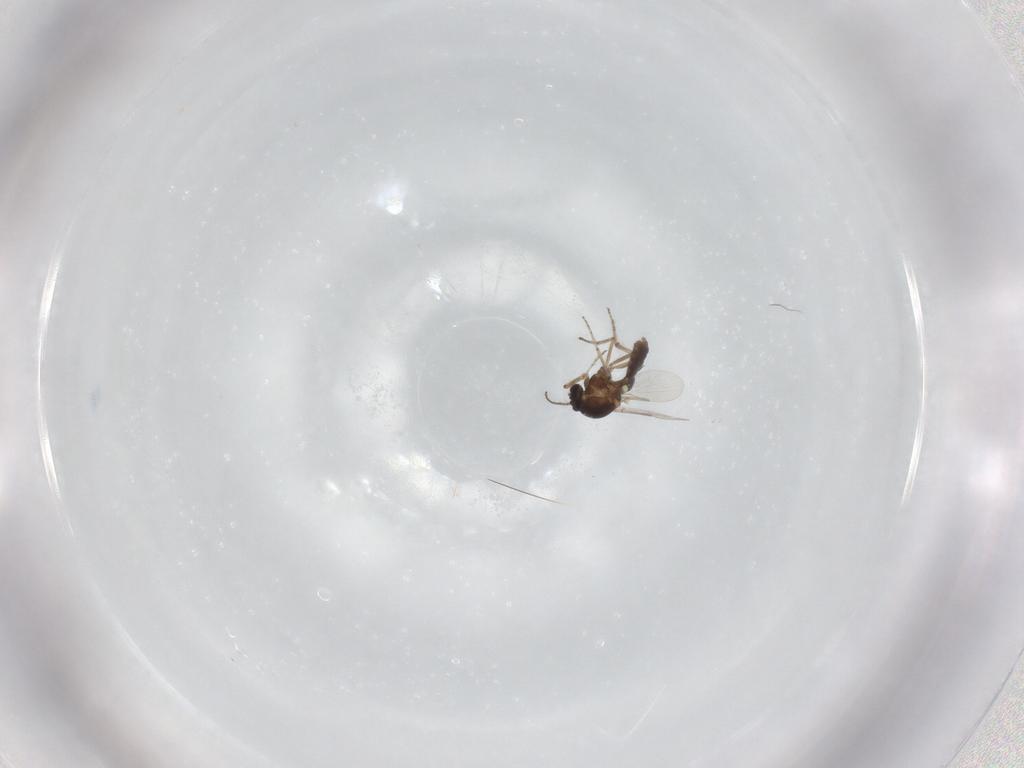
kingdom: Animalia
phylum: Arthropoda
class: Insecta
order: Diptera
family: Ceratopogonidae
